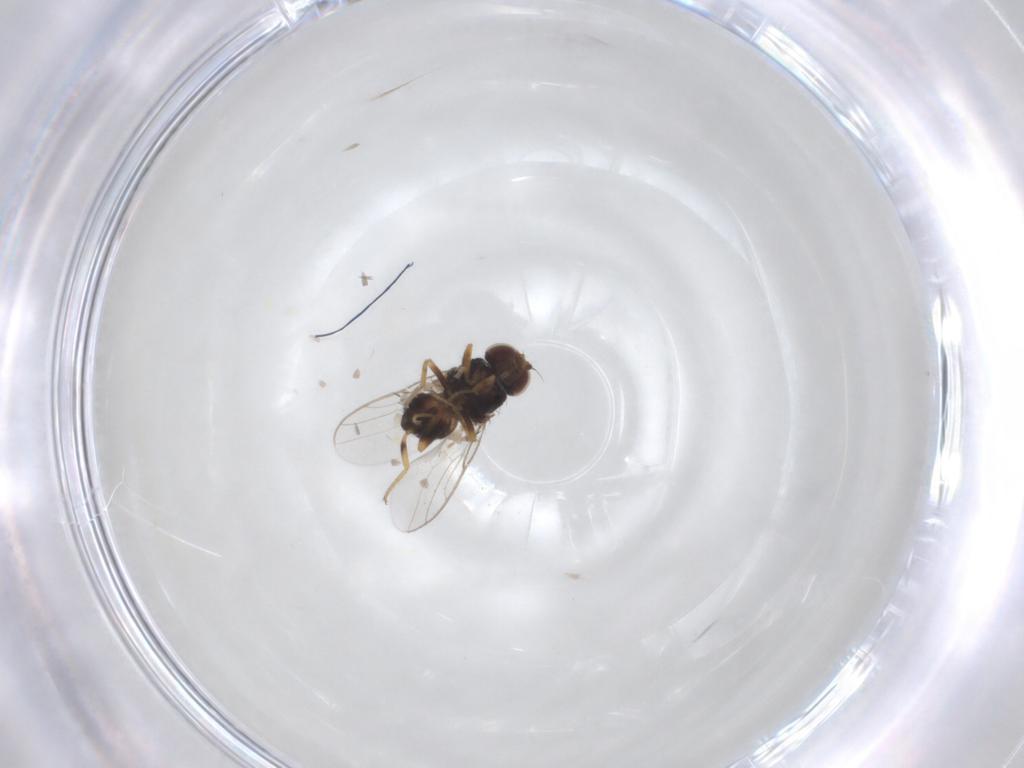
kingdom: Animalia
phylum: Arthropoda
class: Insecta
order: Diptera
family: Chloropidae
